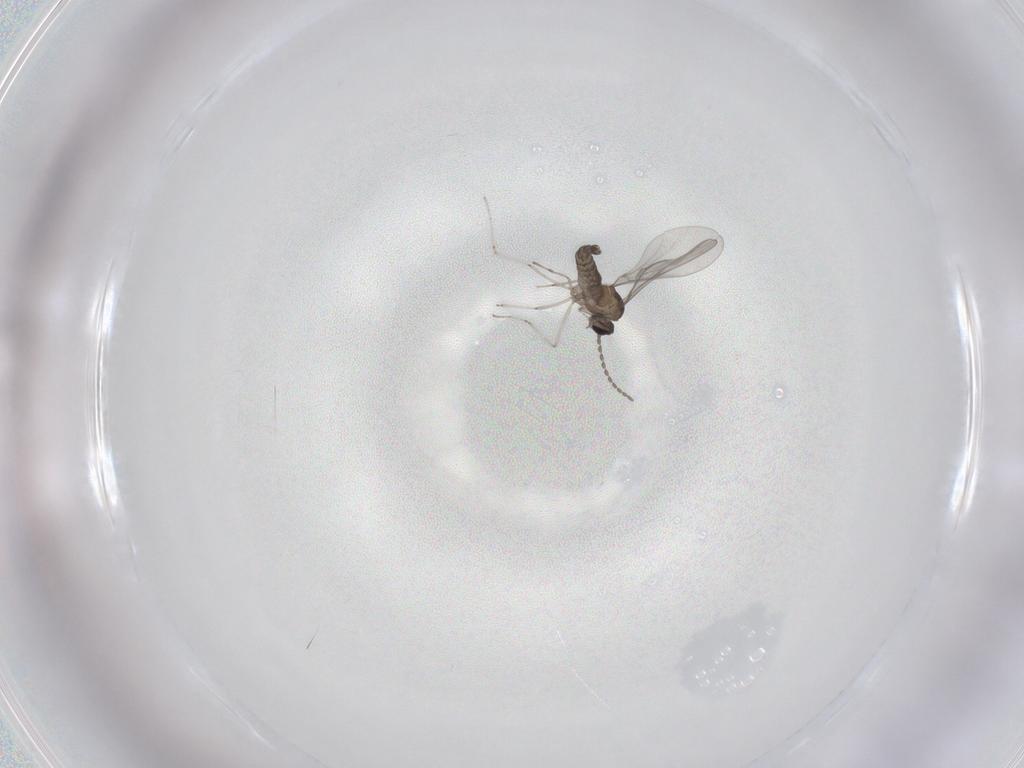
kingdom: Animalia
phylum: Arthropoda
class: Insecta
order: Diptera
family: Cecidomyiidae
